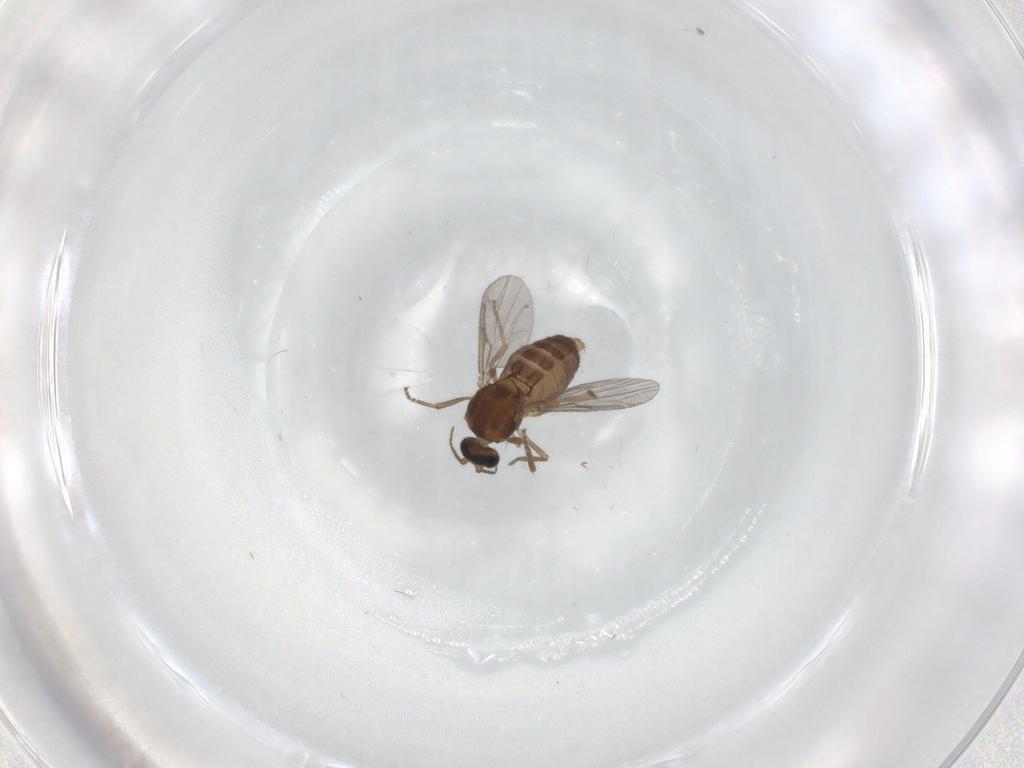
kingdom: Animalia
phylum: Arthropoda
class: Insecta
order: Diptera
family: Ceratopogonidae
